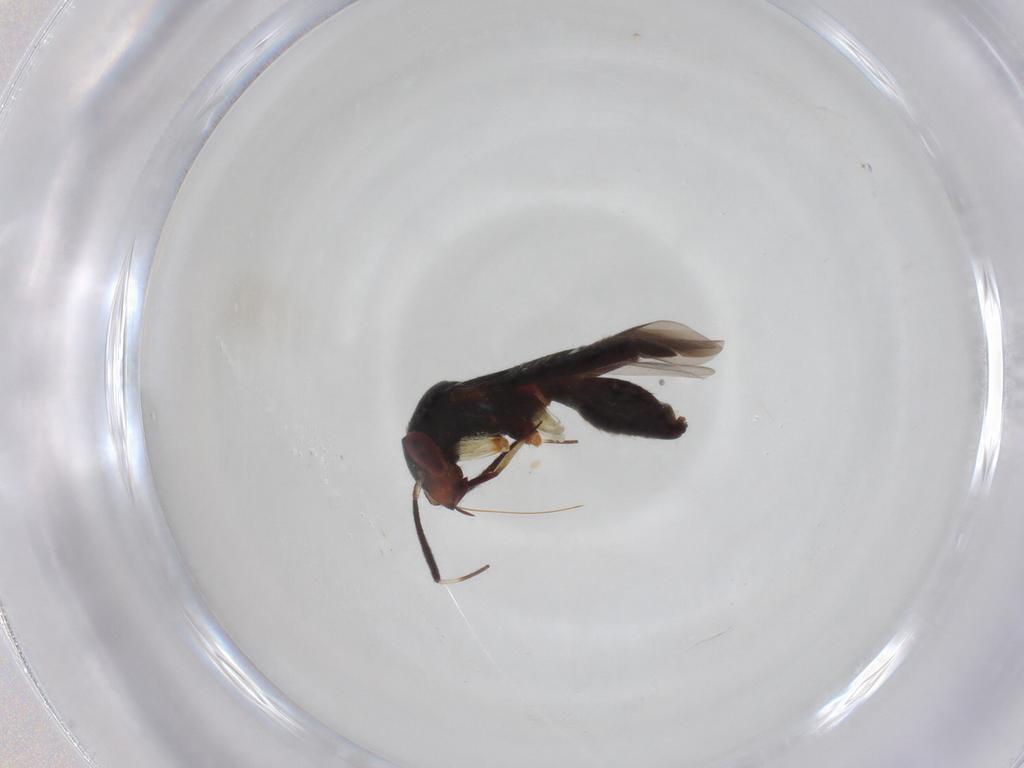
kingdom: Animalia
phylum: Arthropoda
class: Insecta
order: Hemiptera
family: Miridae
